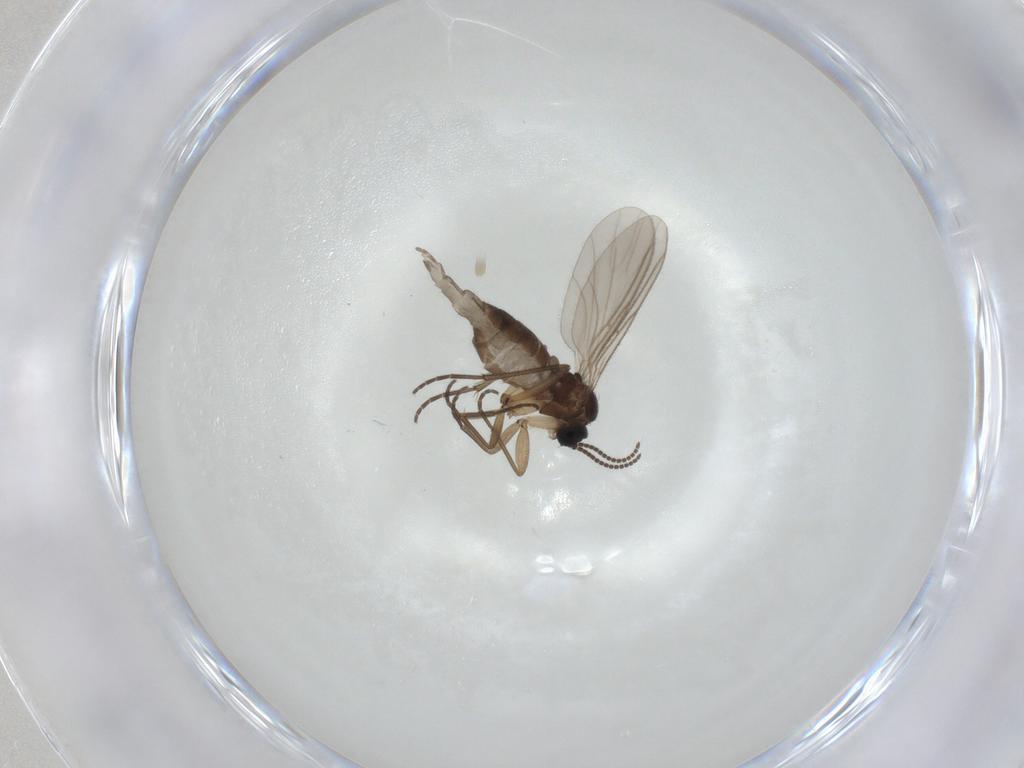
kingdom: Animalia
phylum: Arthropoda
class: Insecta
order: Diptera
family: Sciaridae
